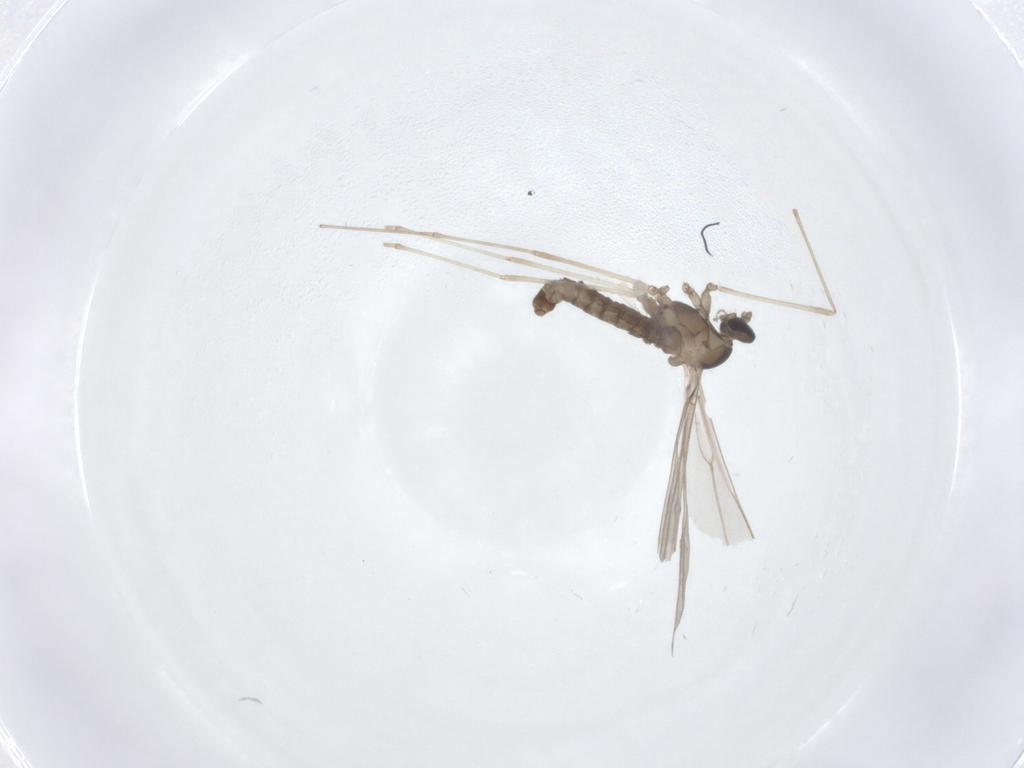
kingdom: Animalia
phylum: Arthropoda
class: Insecta
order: Diptera
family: Cecidomyiidae
